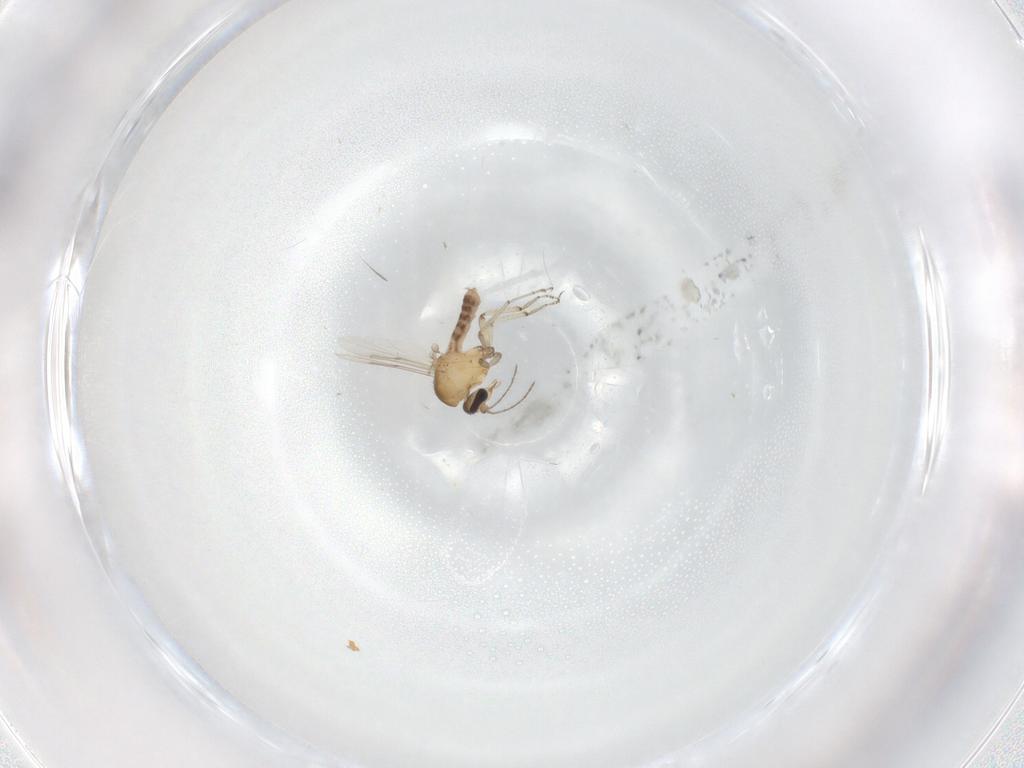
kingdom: Animalia
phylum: Arthropoda
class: Insecta
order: Diptera
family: Ceratopogonidae
